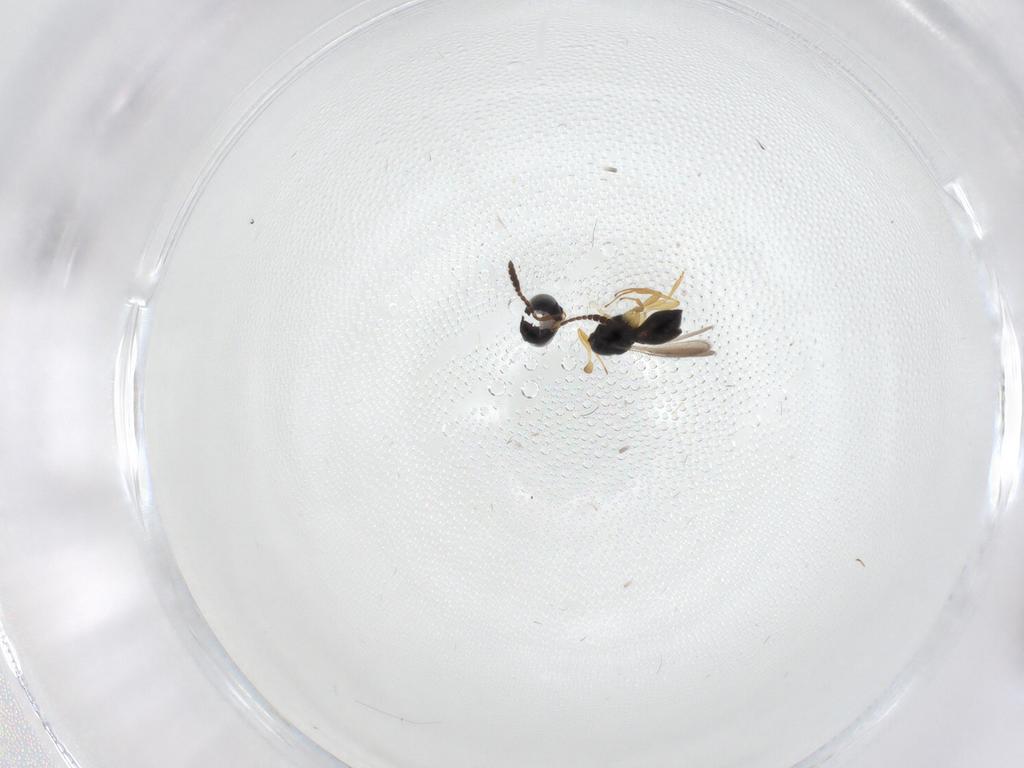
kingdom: Animalia
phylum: Arthropoda
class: Insecta
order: Hymenoptera
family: Scelionidae
